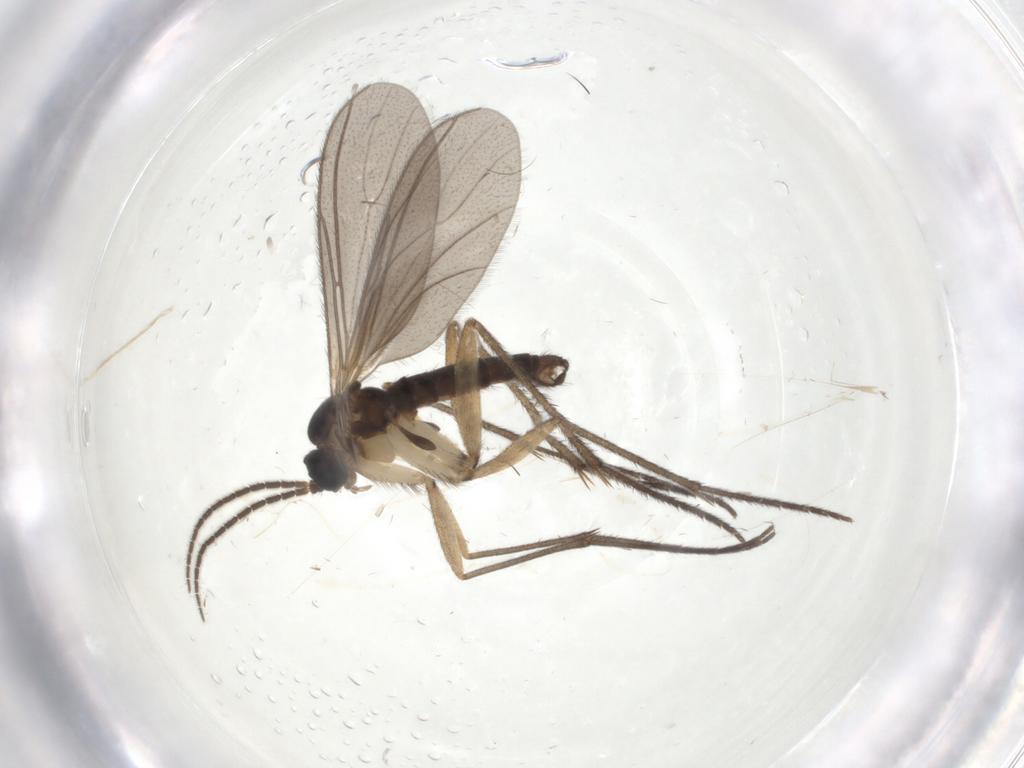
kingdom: Animalia
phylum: Arthropoda
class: Insecta
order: Diptera
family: Sciaridae
